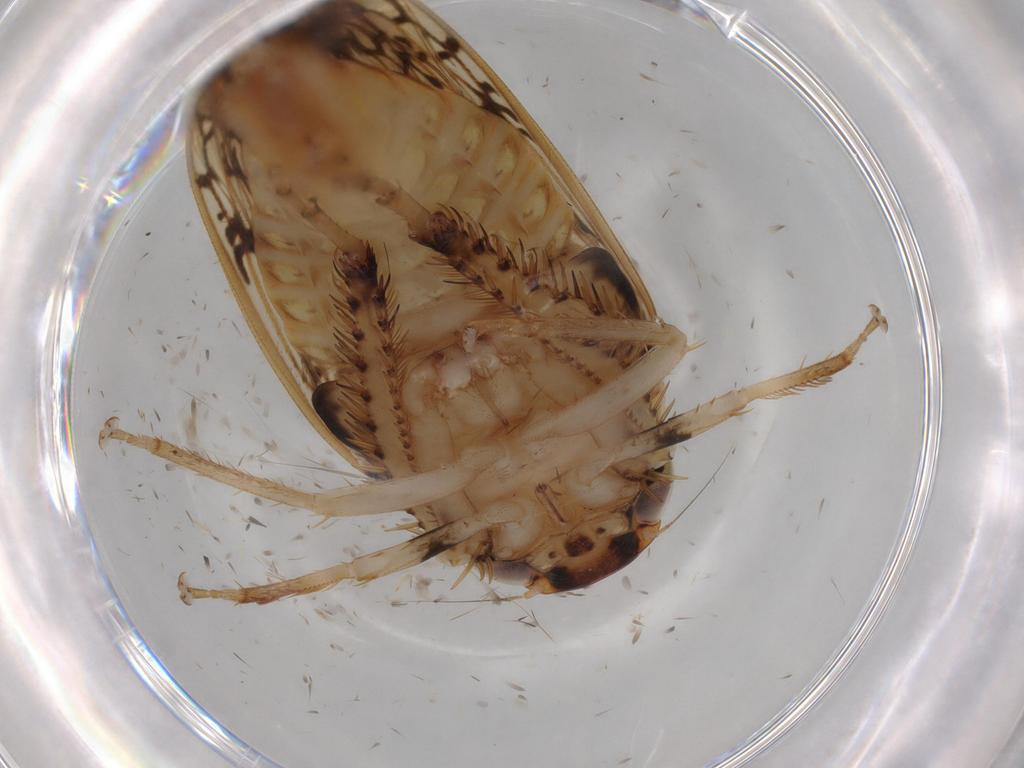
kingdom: Animalia
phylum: Arthropoda
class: Insecta
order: Hemiptera
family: Cicadellidae
